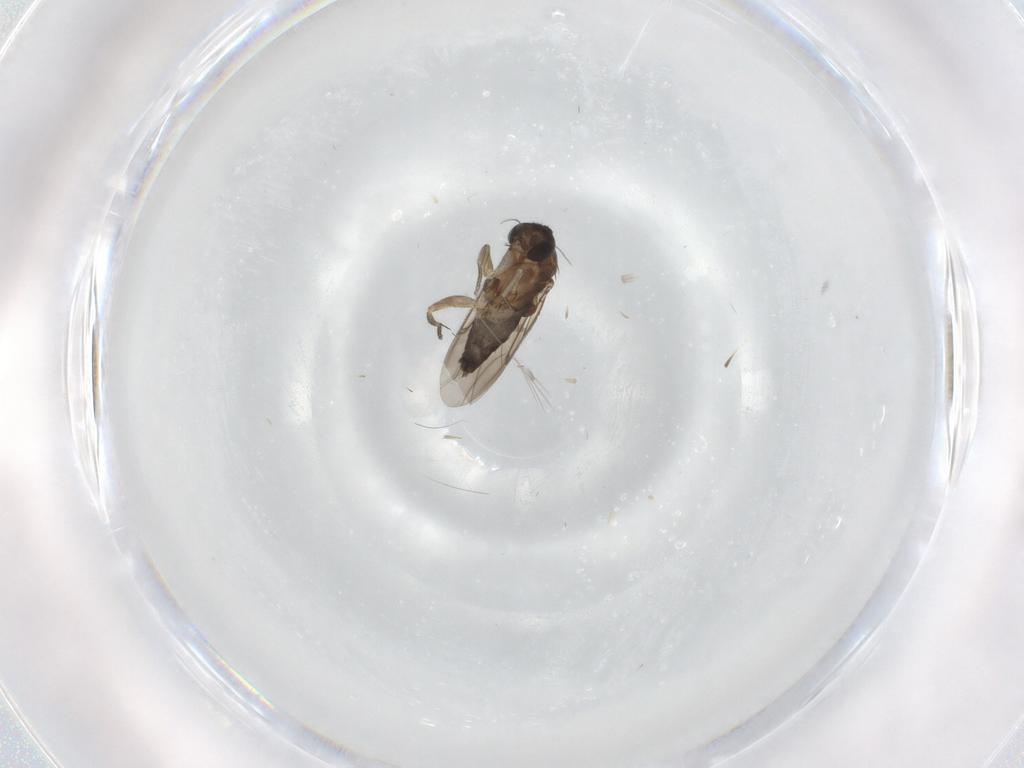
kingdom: Animalia
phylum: Arthropoda
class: Insecta
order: Diptera
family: Phoridae
